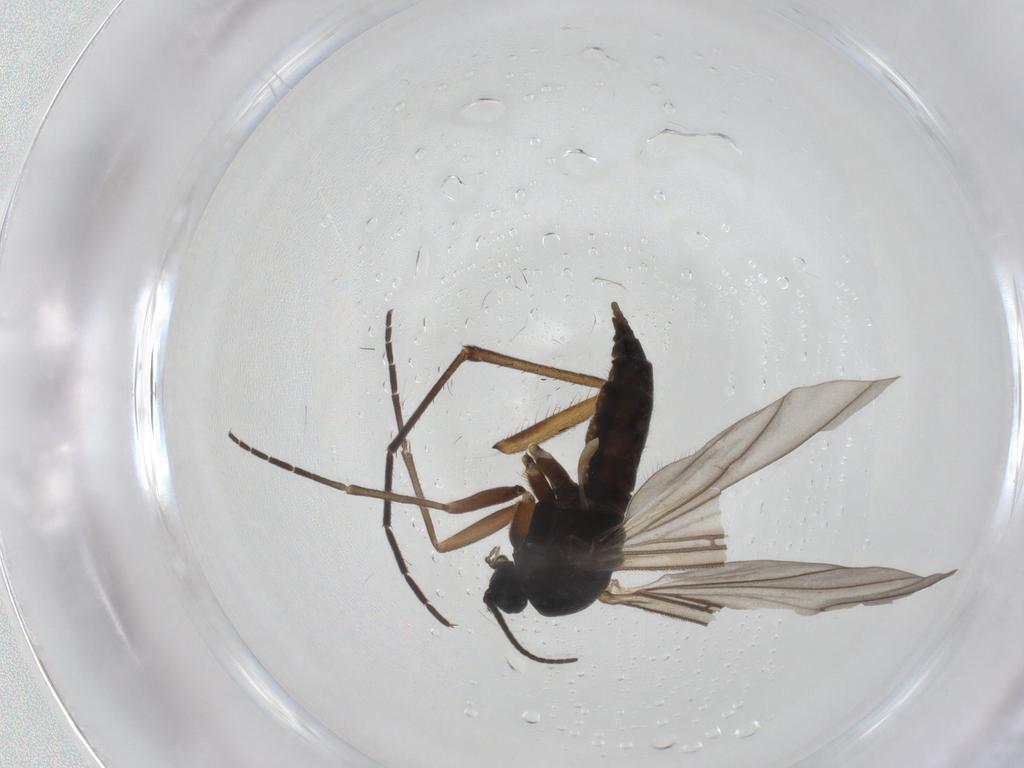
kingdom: Animalia
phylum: Arthropoda
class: Insecta
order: Diptera
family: Sciaridae
